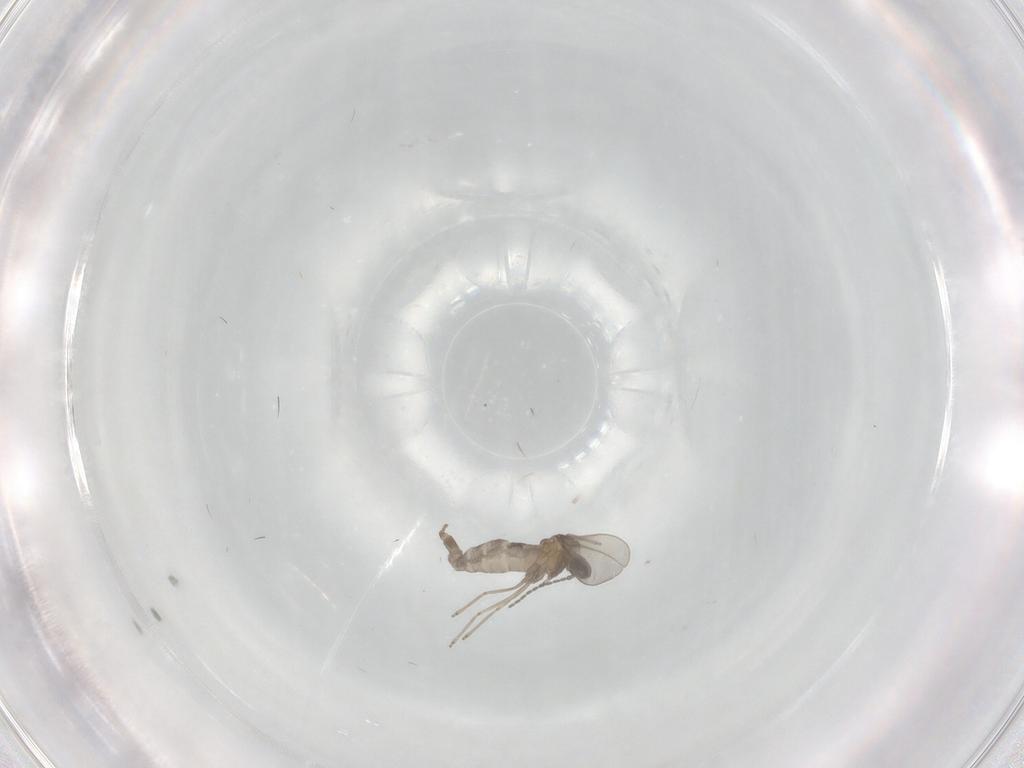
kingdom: Animalia
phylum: Arthropoda
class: Insecta
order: Diptera
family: Cecidomyiidae
